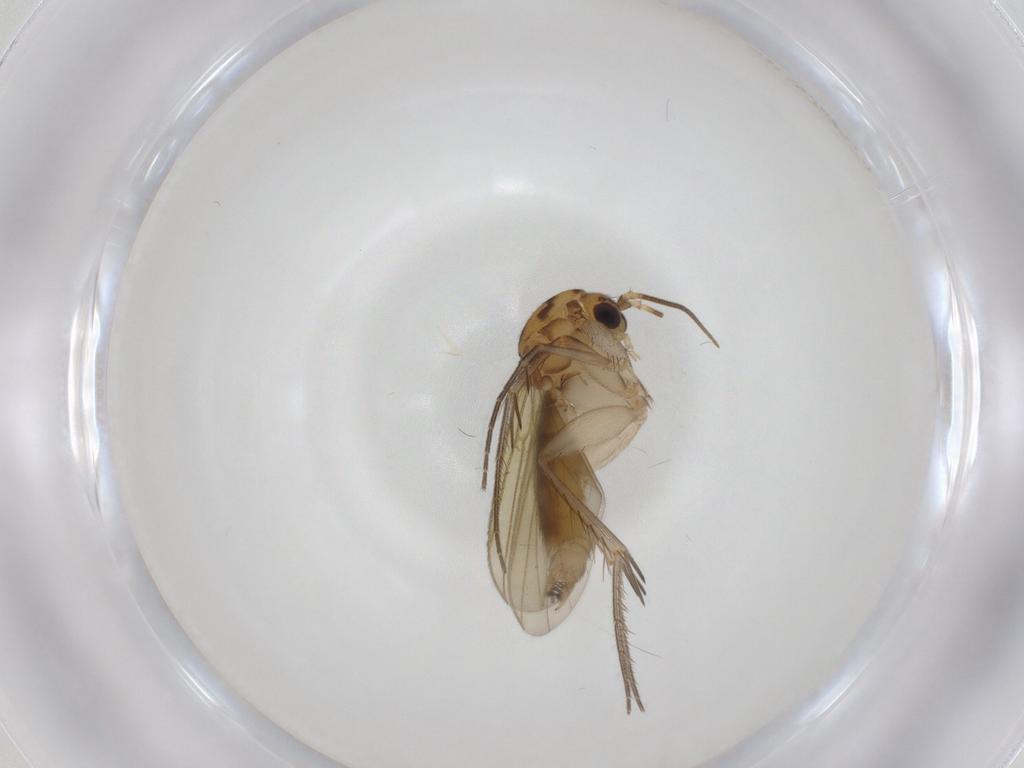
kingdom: Animalia
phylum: Arthropoda
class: Insecta
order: Diptera
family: Mycetophilidae
